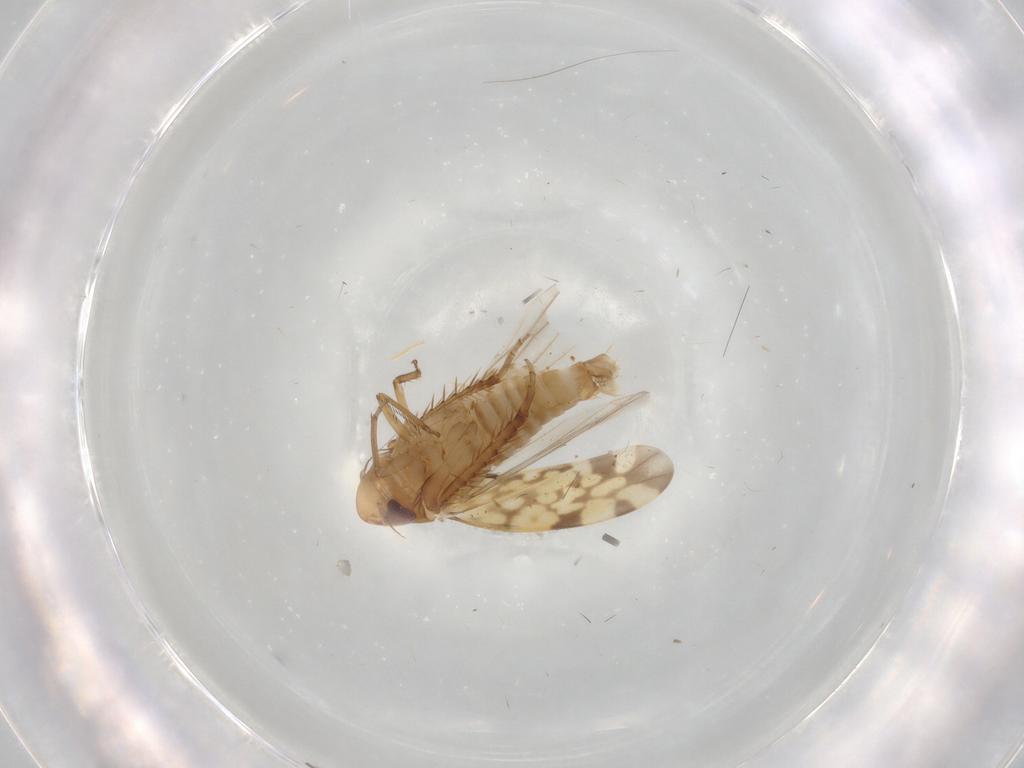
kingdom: Animalia
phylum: Arthropoda
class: Insecta
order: Hemiptera
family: Cicadellidae
